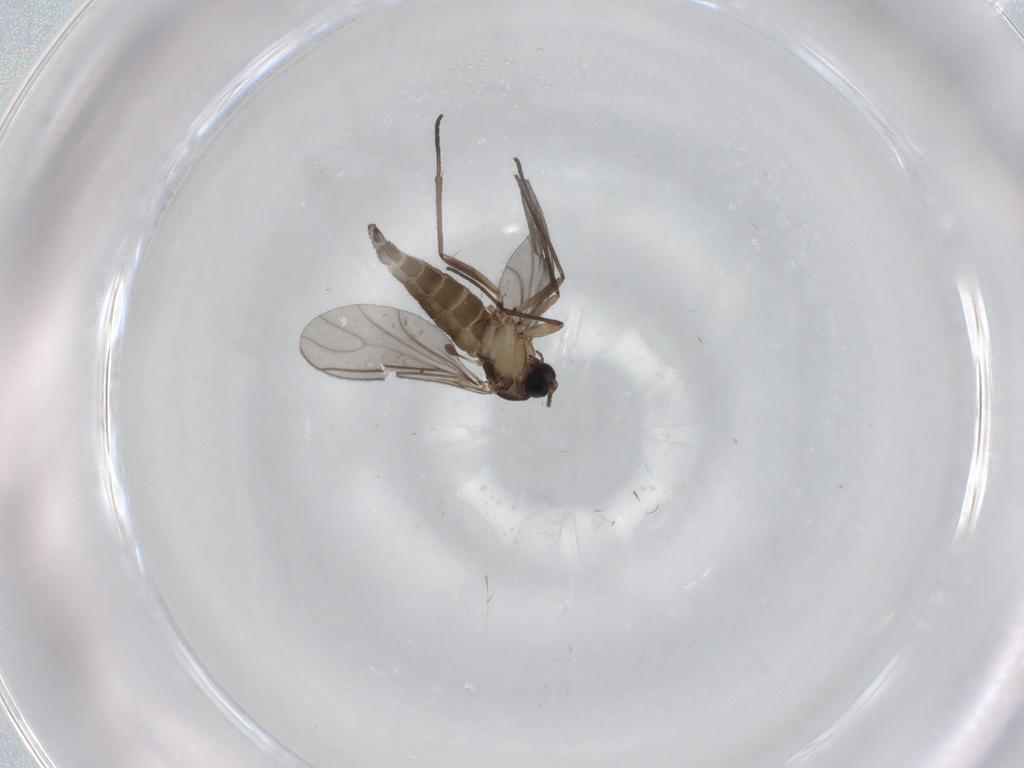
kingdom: Animalia
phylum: Arthropoda
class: Insecta
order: Diptera
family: Sciaridae
